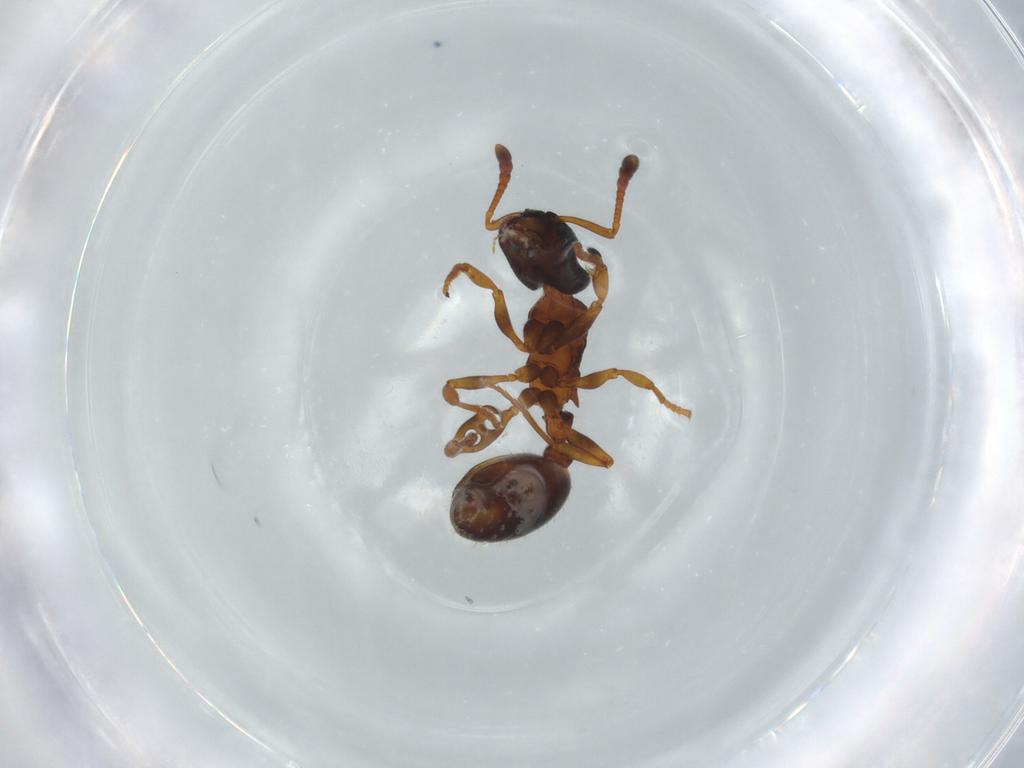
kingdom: Animalia
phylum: Arthropoda
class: Insecta
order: Hymenoptera
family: Formicidae
